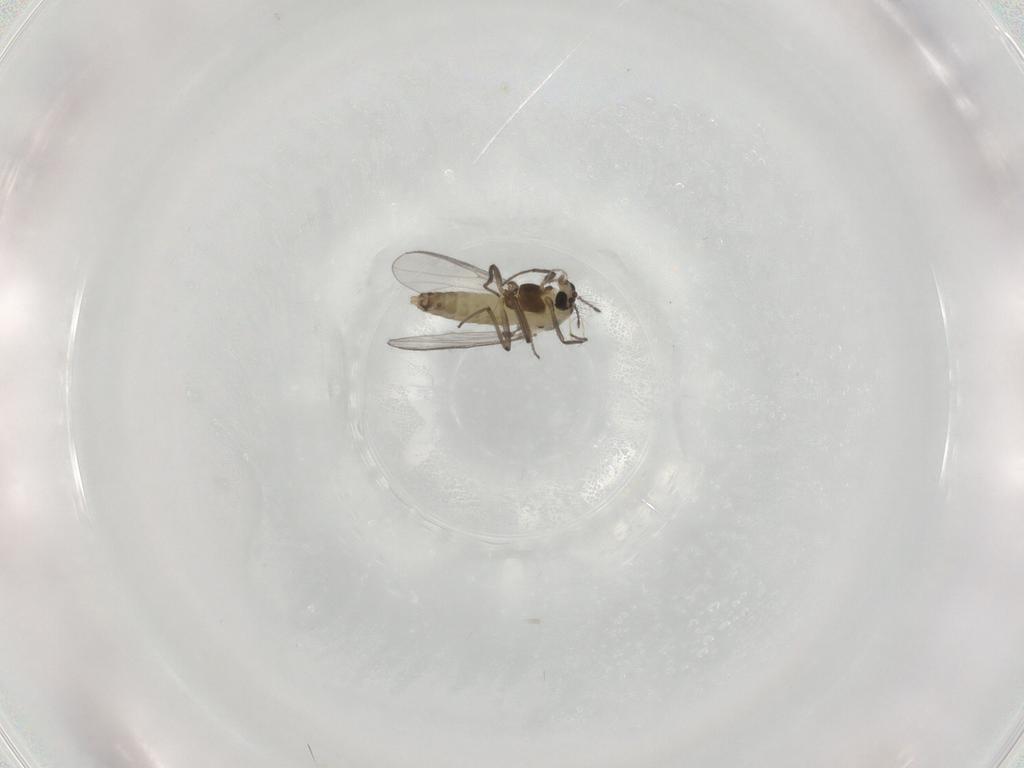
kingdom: Animalia
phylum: Arthropoda
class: Insecta
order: Diptera
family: Chironomidae
